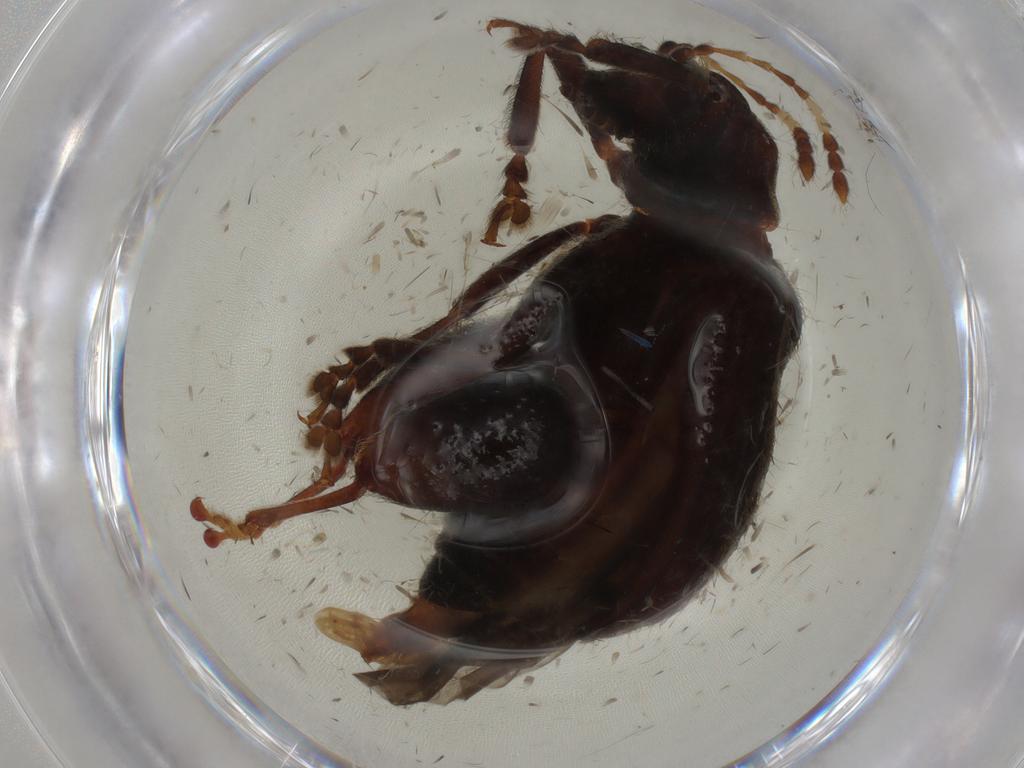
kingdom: Animalia
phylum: Arthropoda
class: Insecta
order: Coleoptera
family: Chrysomelidae
